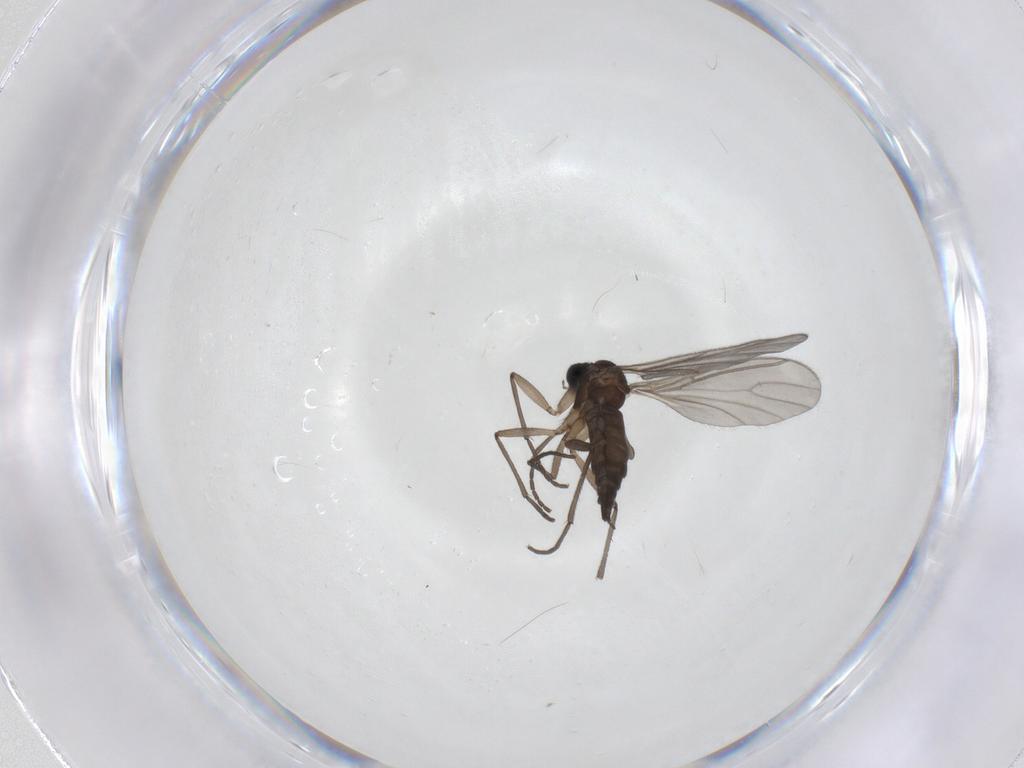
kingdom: Animalia
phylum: Arthropoda
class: Insecta
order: Diptera
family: Sciaridae
